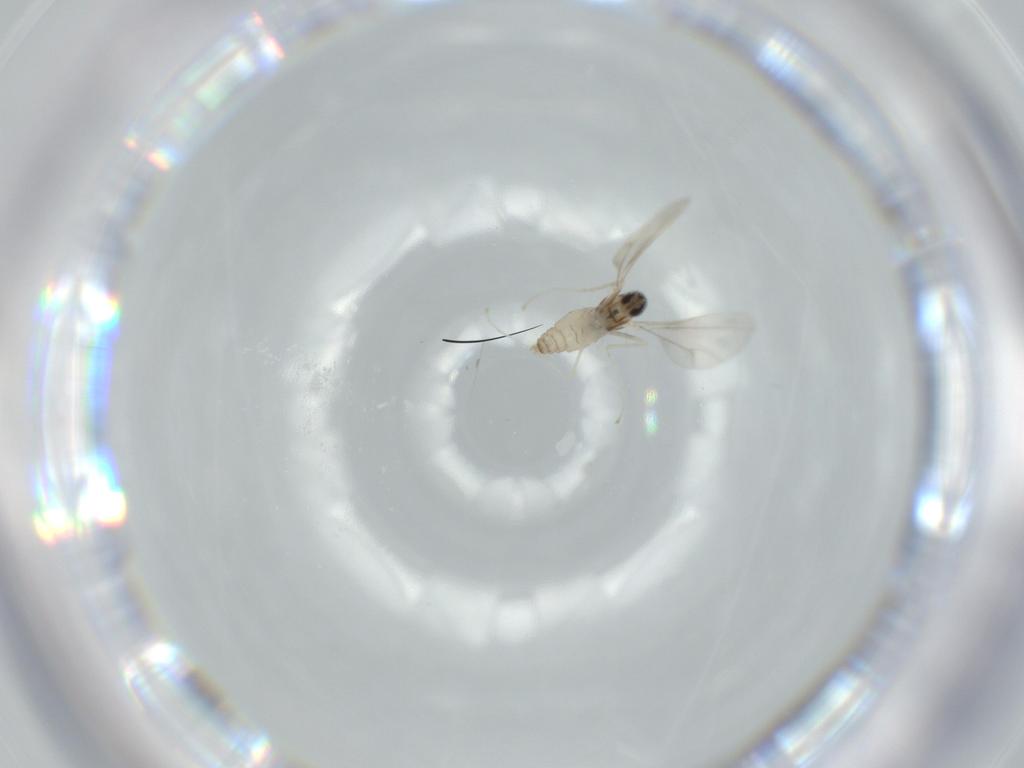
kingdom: Animalia
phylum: Arthropoda
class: Insecta
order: Diptera
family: Cecidomyiidae
